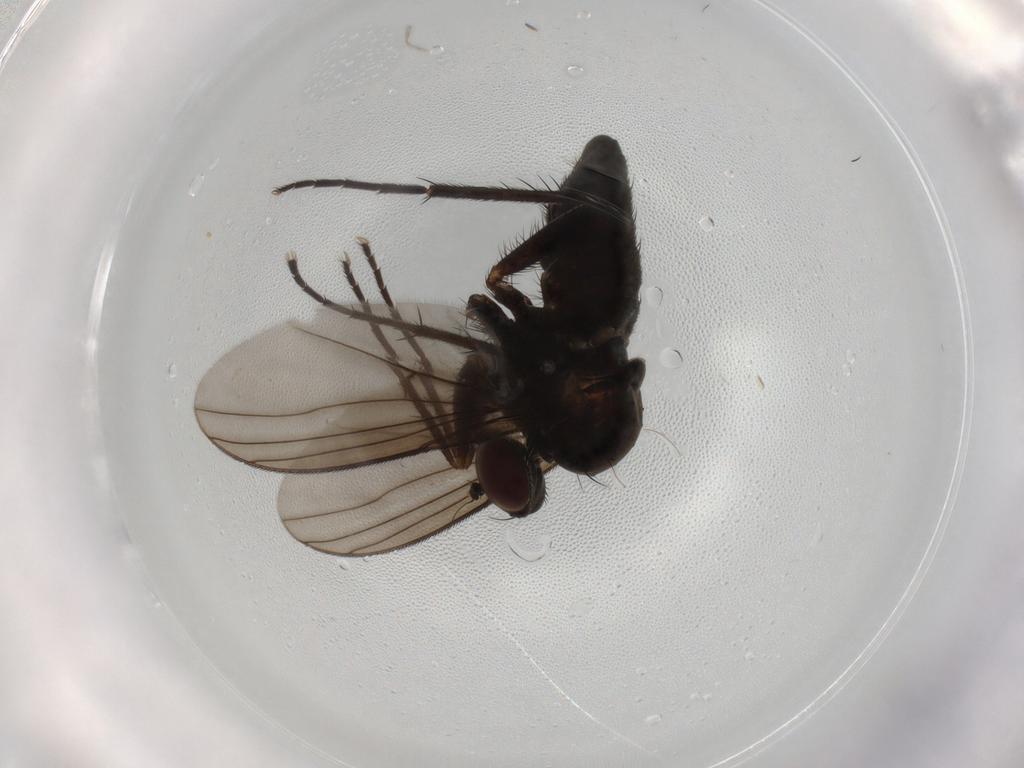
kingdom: Animalia
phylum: Arthropoda
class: Insecta
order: Diptera
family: Dolichopodidae
